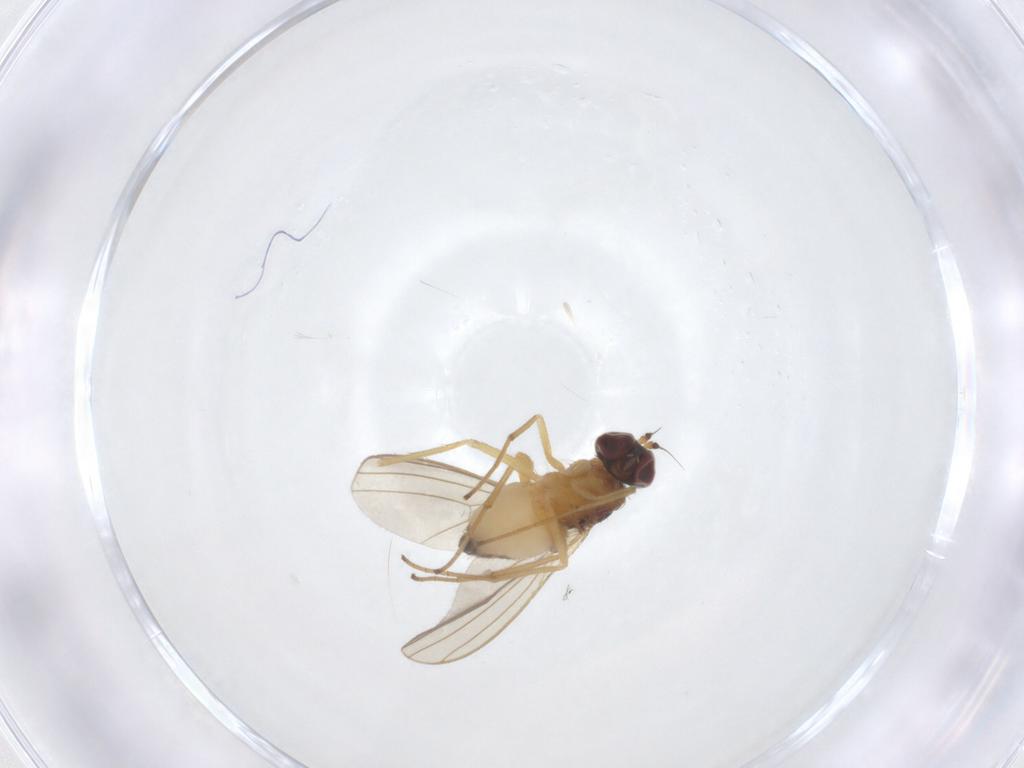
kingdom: Animalia
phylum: Arthropoda
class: Insecta
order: Diptera
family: Dolichopodidae
